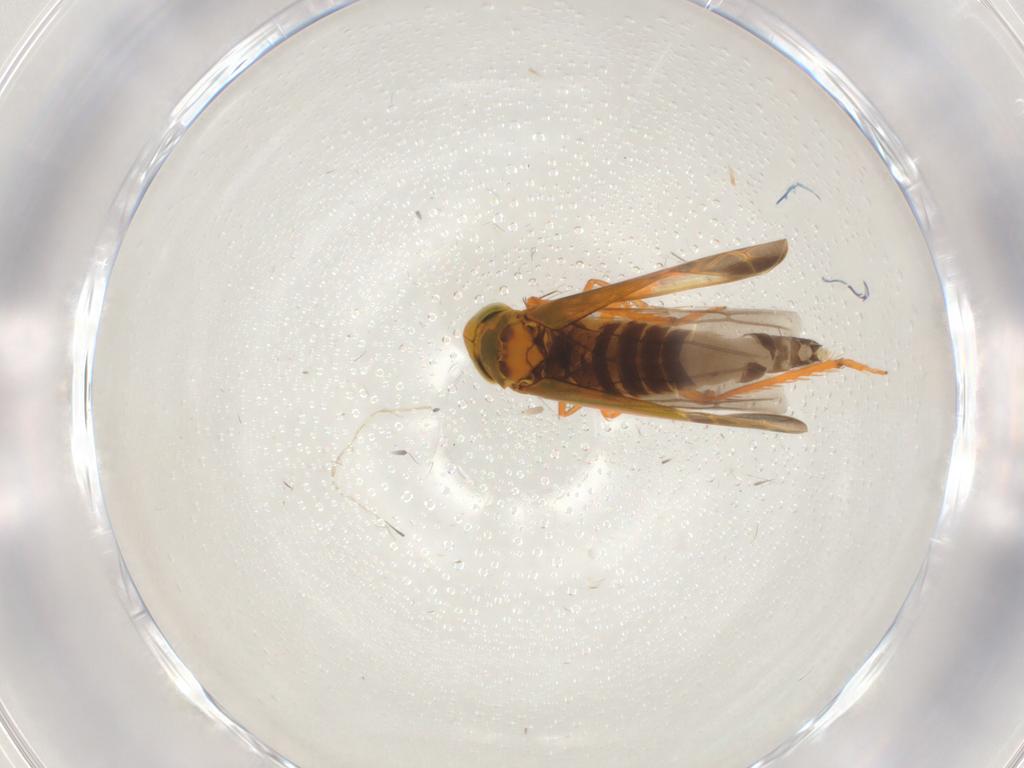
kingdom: Animalia
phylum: Arthropoda
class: Insecta
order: Hemiptera
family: Cicadellidae
